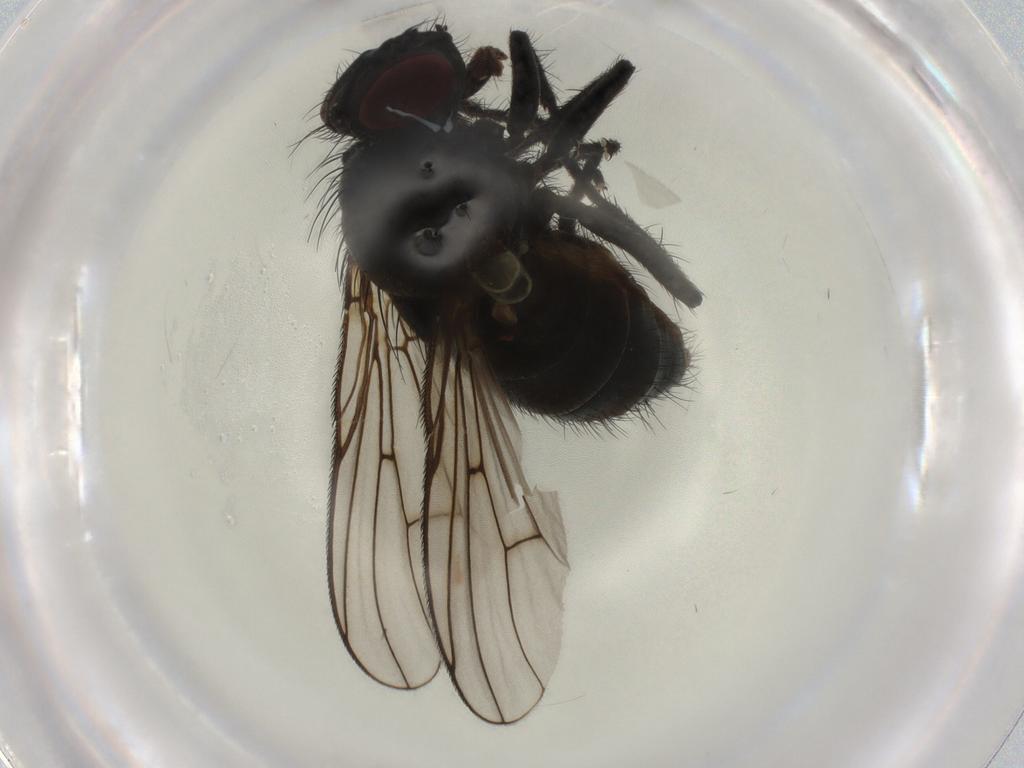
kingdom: Animalia
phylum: Arthropoda
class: Insecta
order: Diptera
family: Muscidae
